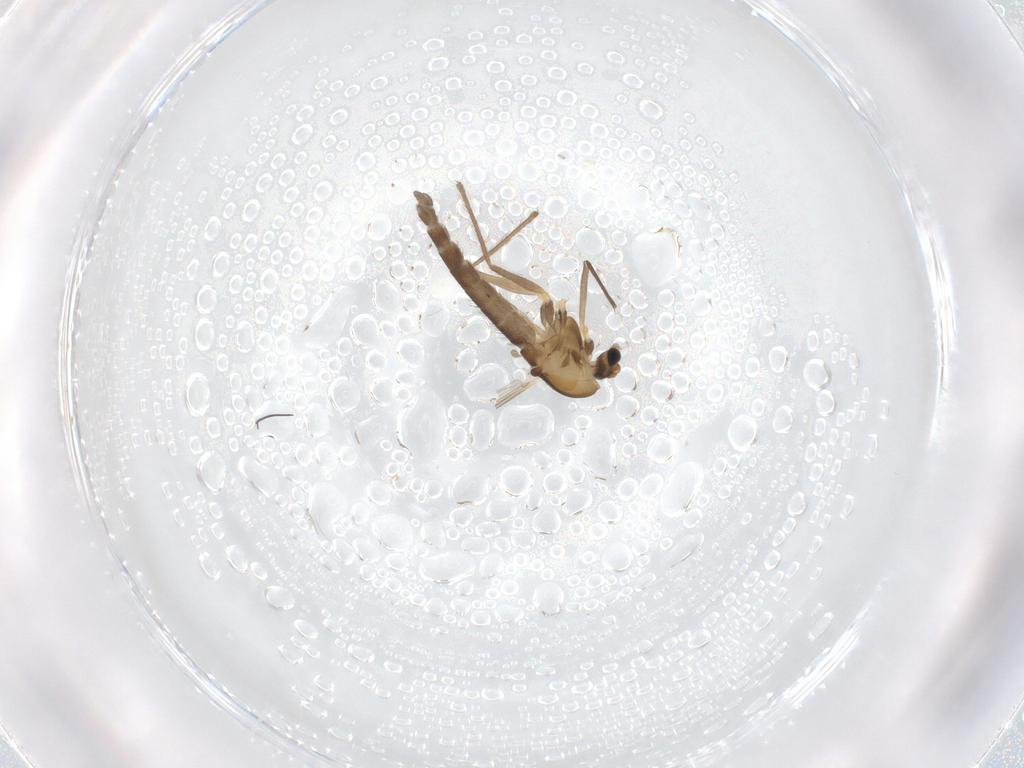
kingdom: Animalia
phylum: Arthropoda
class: Insecta
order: Diptera
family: Chironomidae
